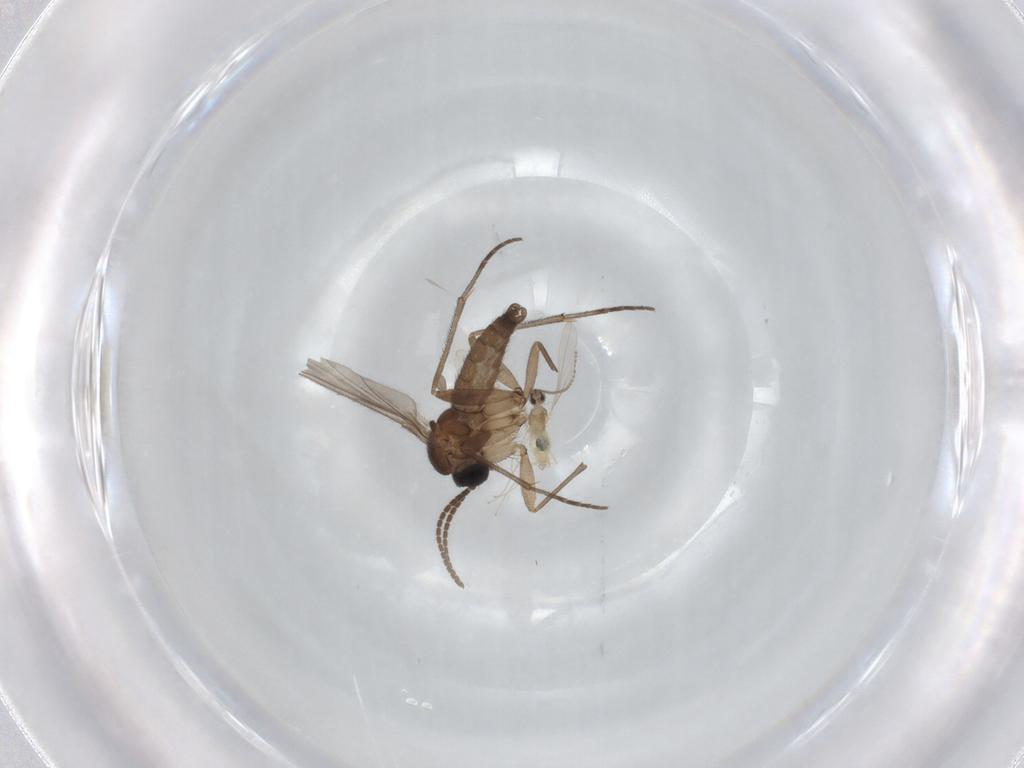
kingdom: Animalia
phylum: Arthropoda
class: Insecta
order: Diptera
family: Sciaridae
